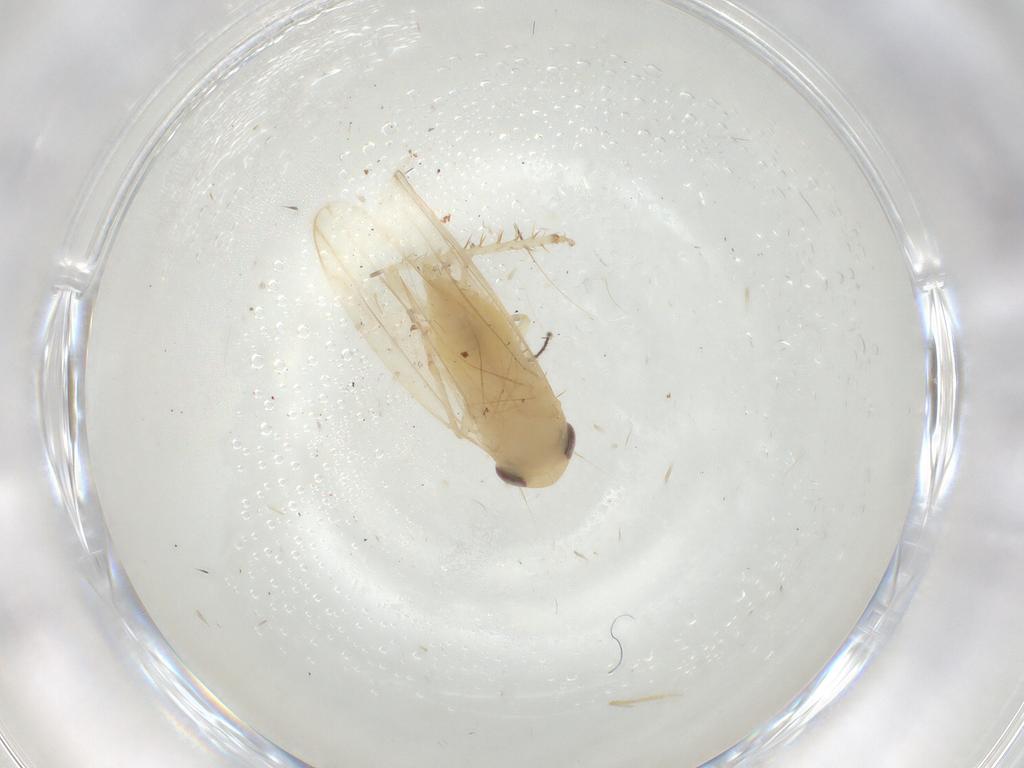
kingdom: Animalia
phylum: Arthropoda
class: Insecta
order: Hemiptera
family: Cicadellidae
